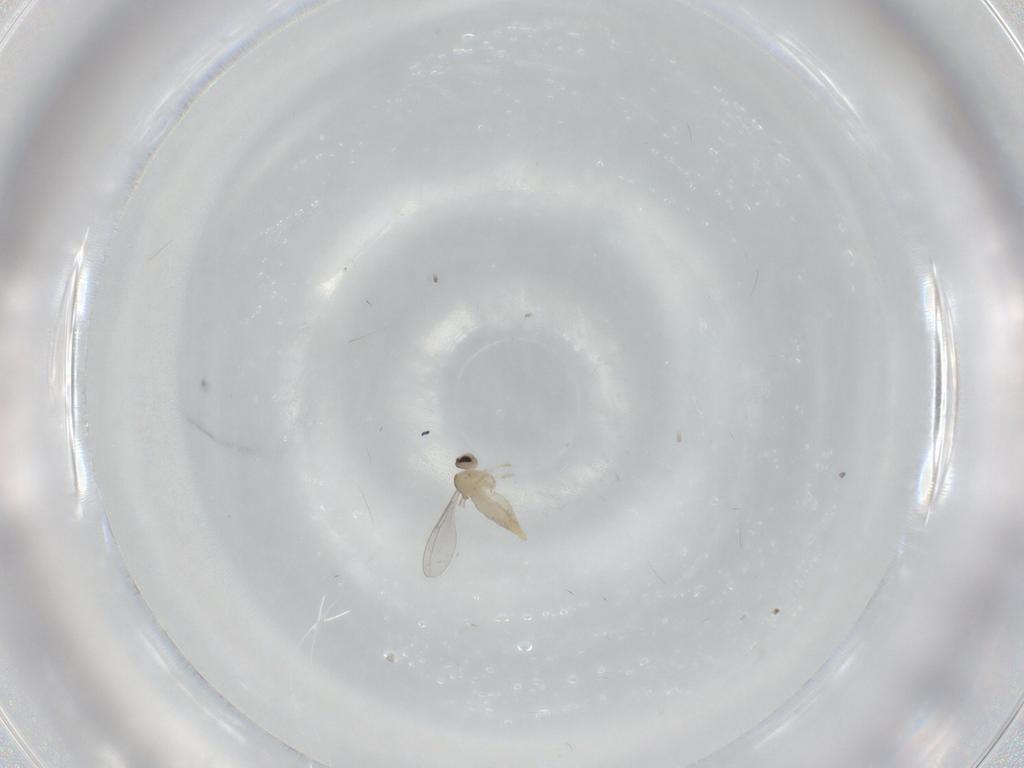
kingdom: Animalia
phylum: Arthropoda
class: Insecta
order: Diptera
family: Cecidomyiidae
